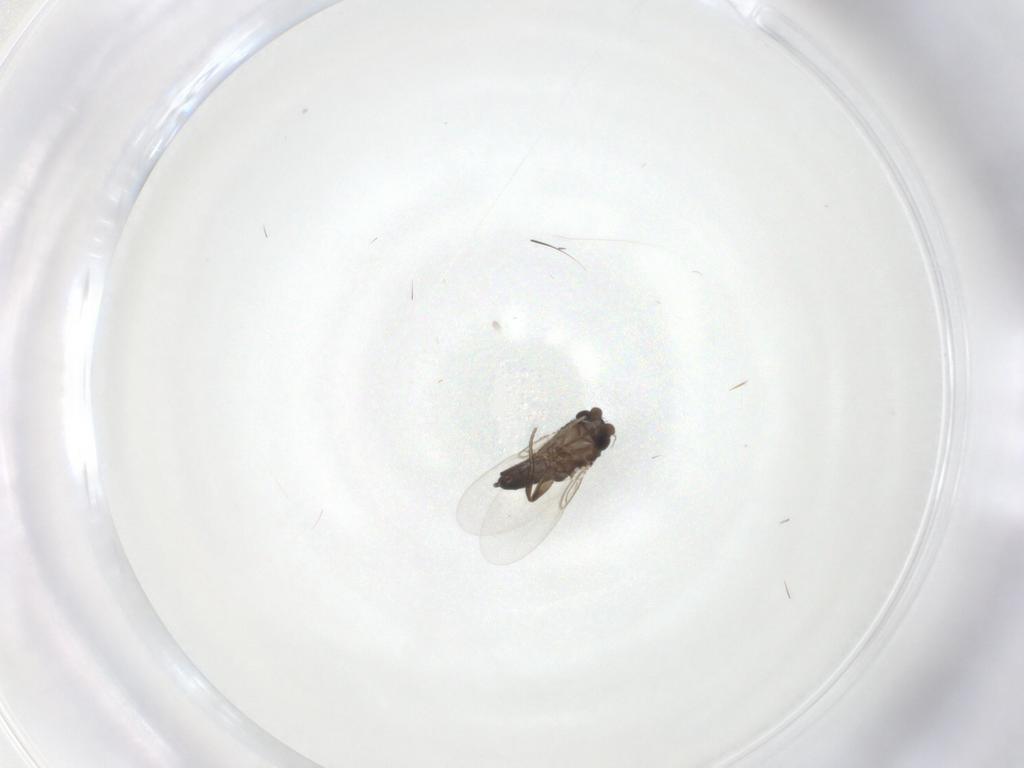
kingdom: Animalia
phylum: Arthropoda
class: Insecta
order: Diptera
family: Phoridae
